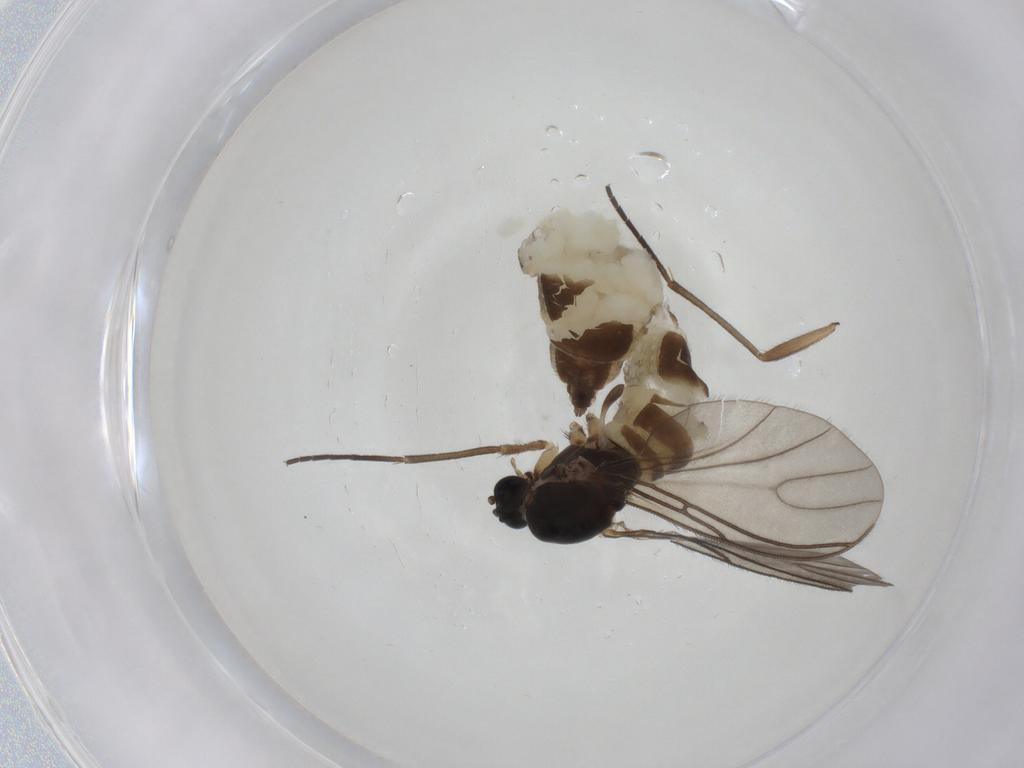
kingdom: Animalia
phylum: Arthropoda
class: Insecta
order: Diptera
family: Sciaridae
